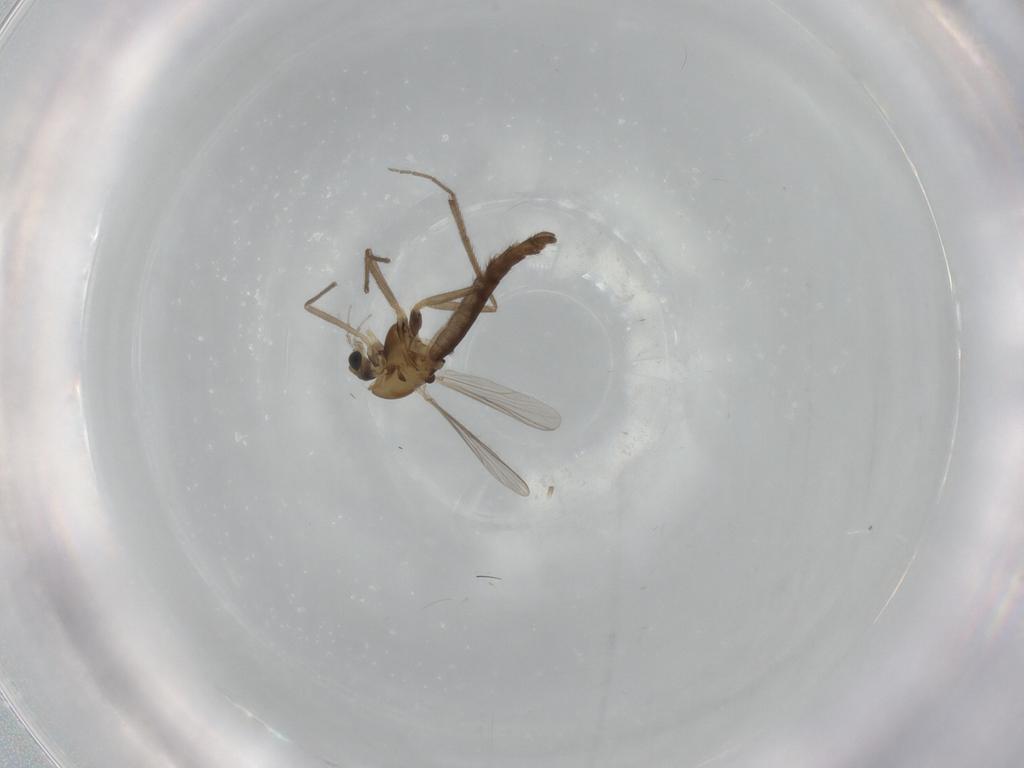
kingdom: Animalia
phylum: Arthropoda
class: Insecta
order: Diptera
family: Chironomidae
